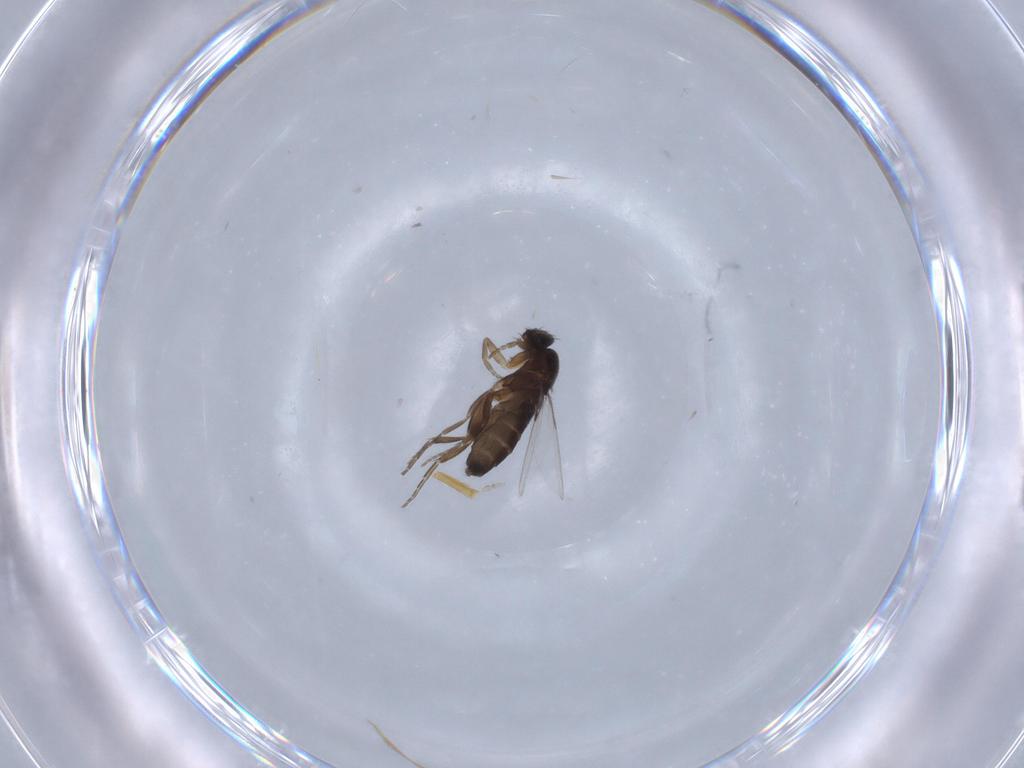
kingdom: Animalia
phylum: Arthropoda
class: Insecta
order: Diptera
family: Phoridae
